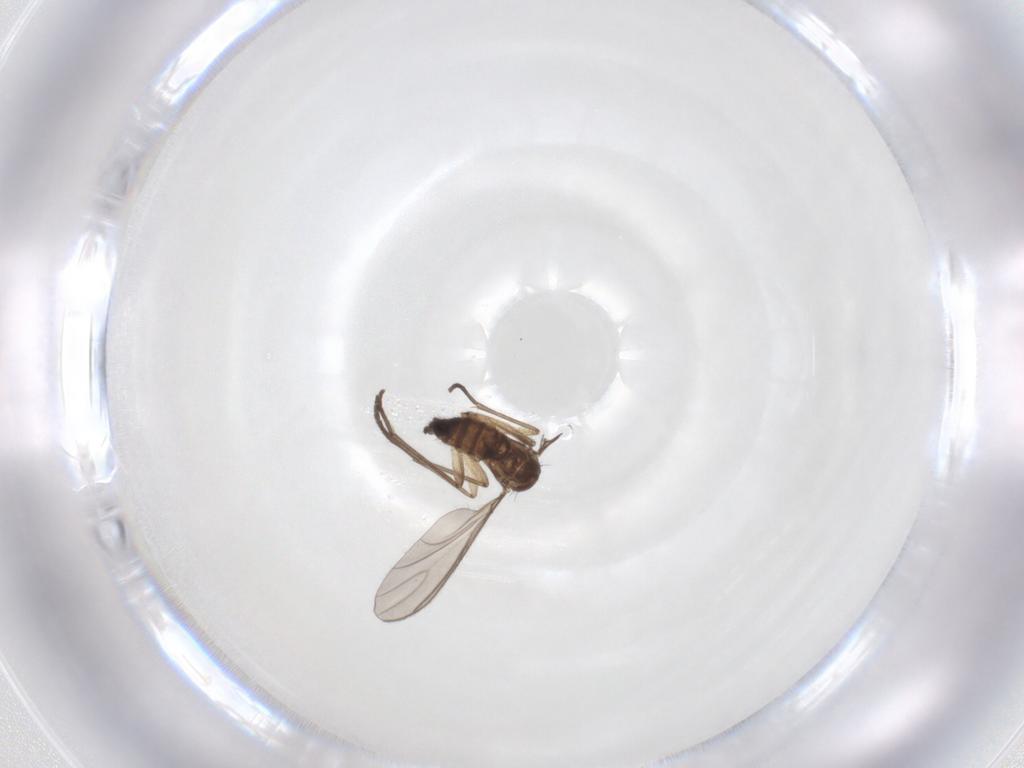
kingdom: Animalia
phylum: Arthropoda
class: Insecta
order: Diptera
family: Sciaridae
